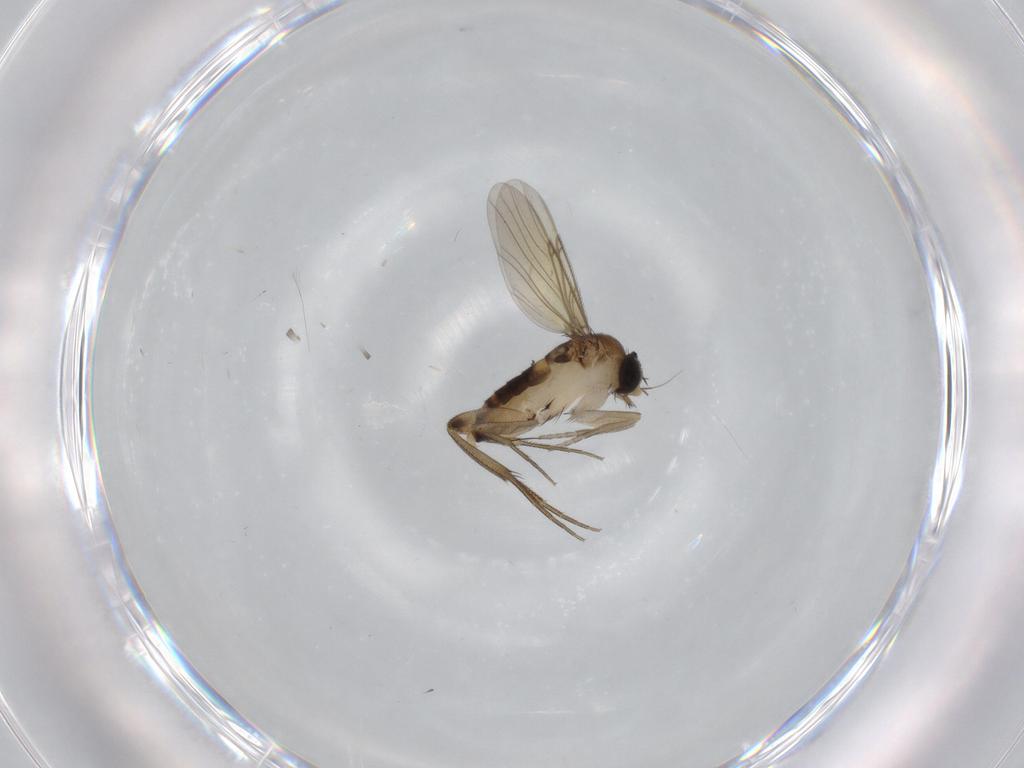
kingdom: Animalia
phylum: Arthropoda
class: Insecta
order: Diptera
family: Phoridae
